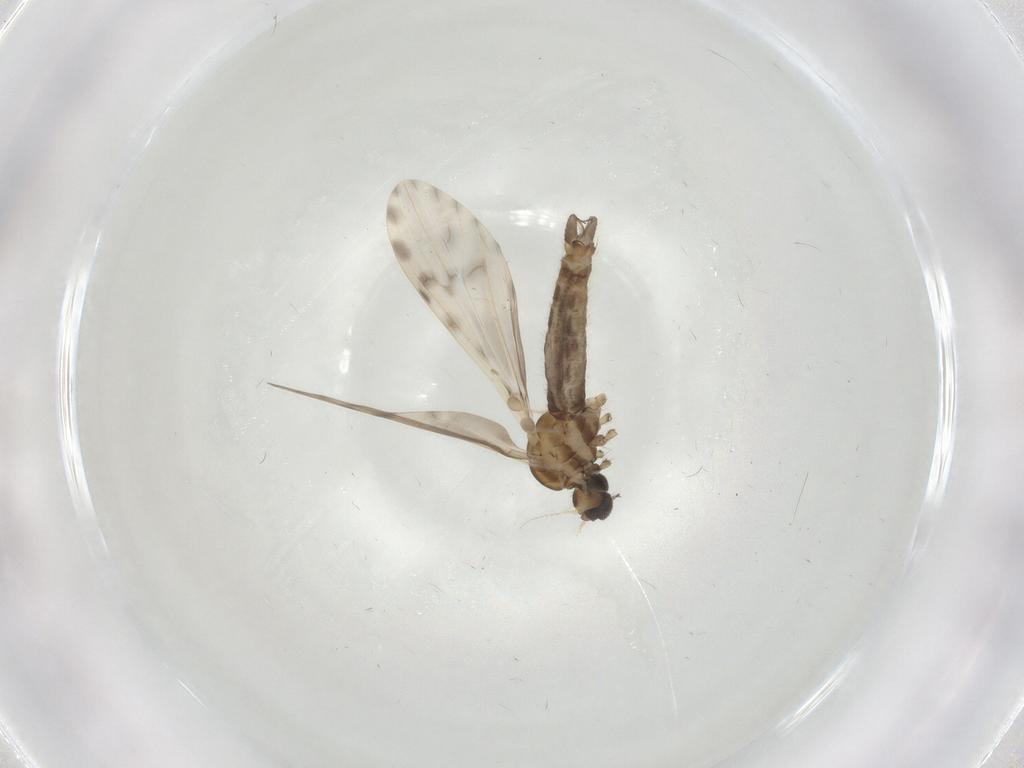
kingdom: Animalia
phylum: Arthropoda
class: Insecta
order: Diptera
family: Limoniidae
